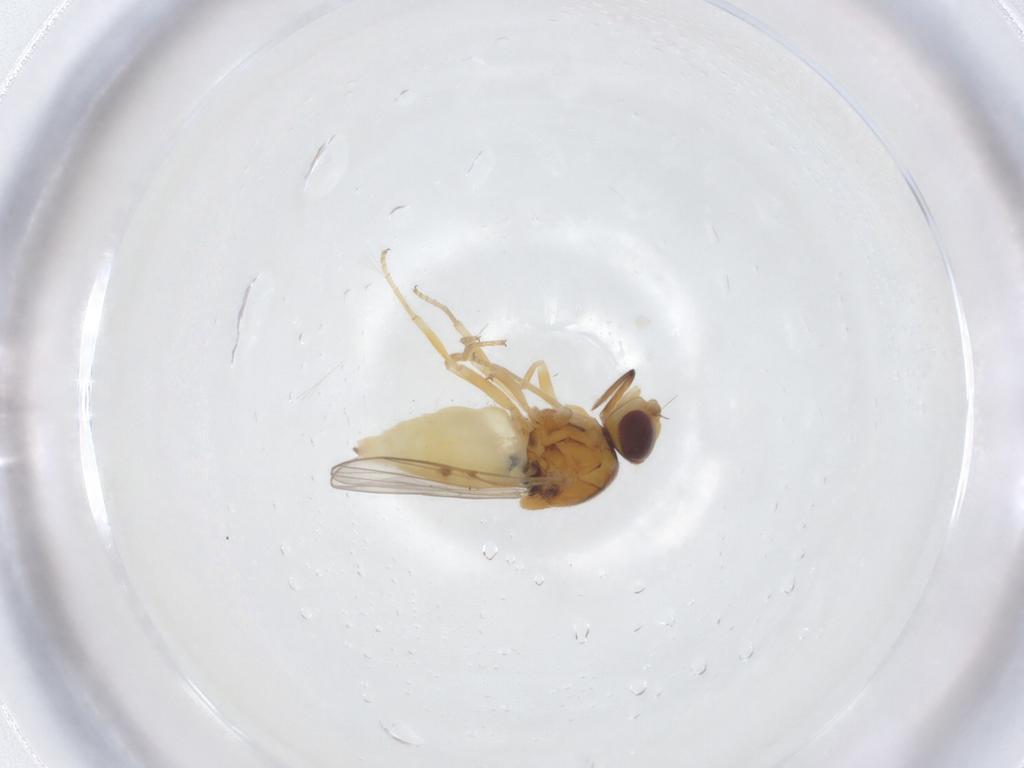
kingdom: Animalia
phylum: Arthropoda
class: Insecta
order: Diptera
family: Chloropidae
